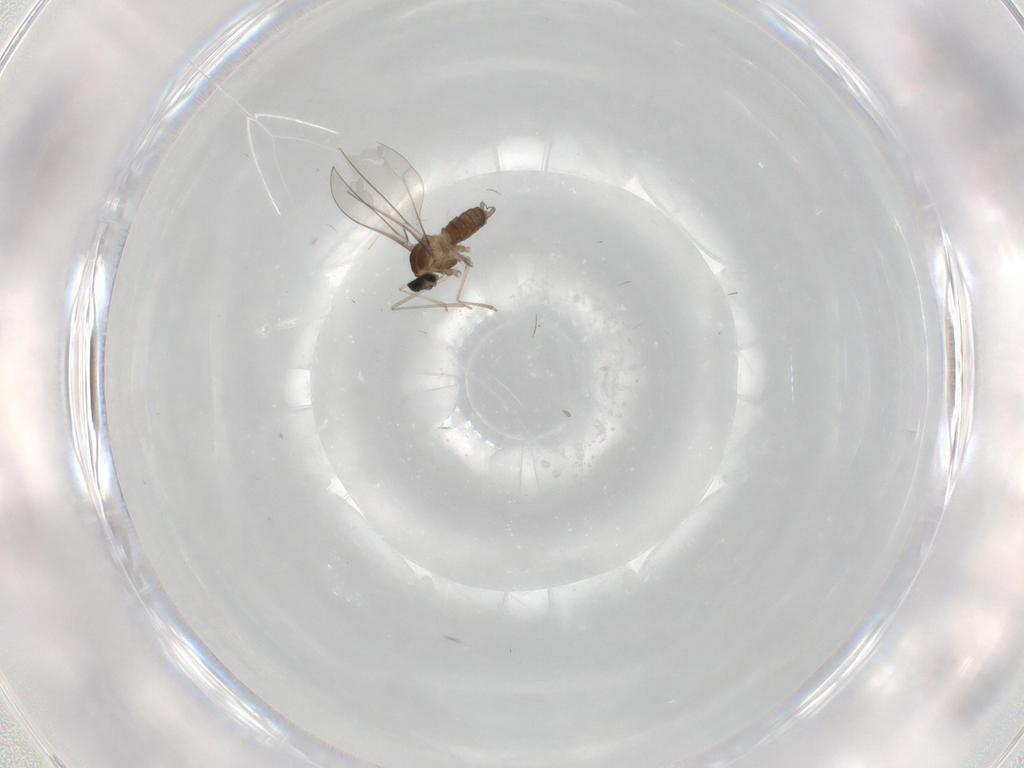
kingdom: Animalia
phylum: Arthropoda
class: Insecta
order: Diptera
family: Cecidomyiidae
